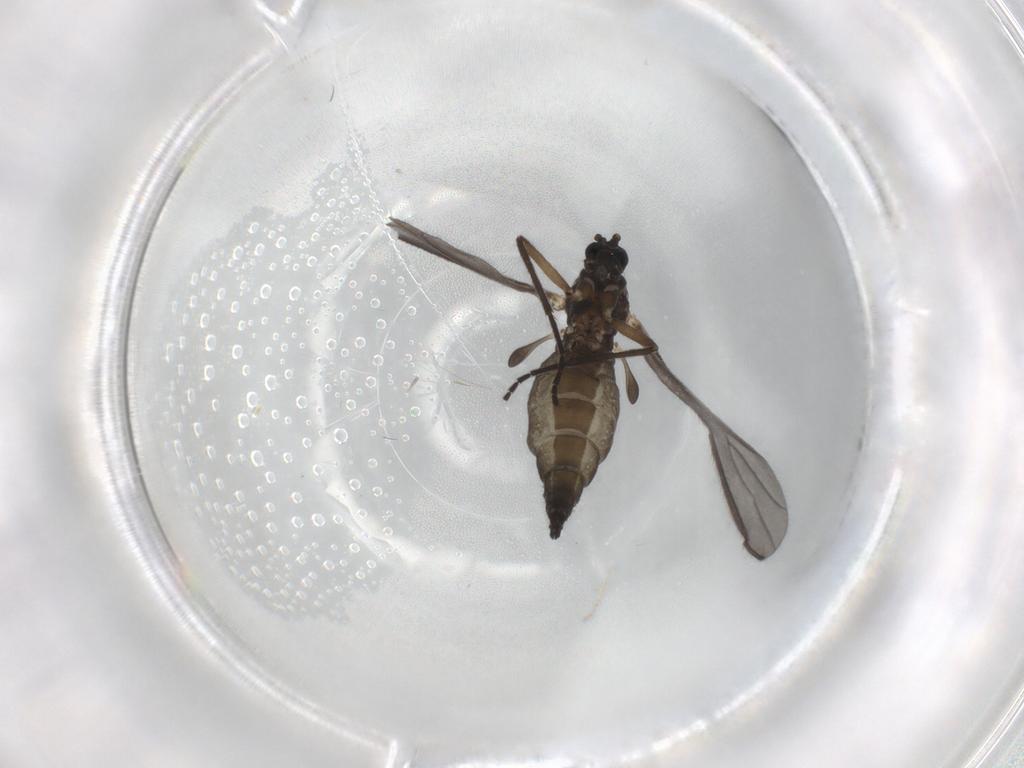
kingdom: Animalia
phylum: Arthropoda
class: Insecta
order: Diptera
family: Sciaridae
